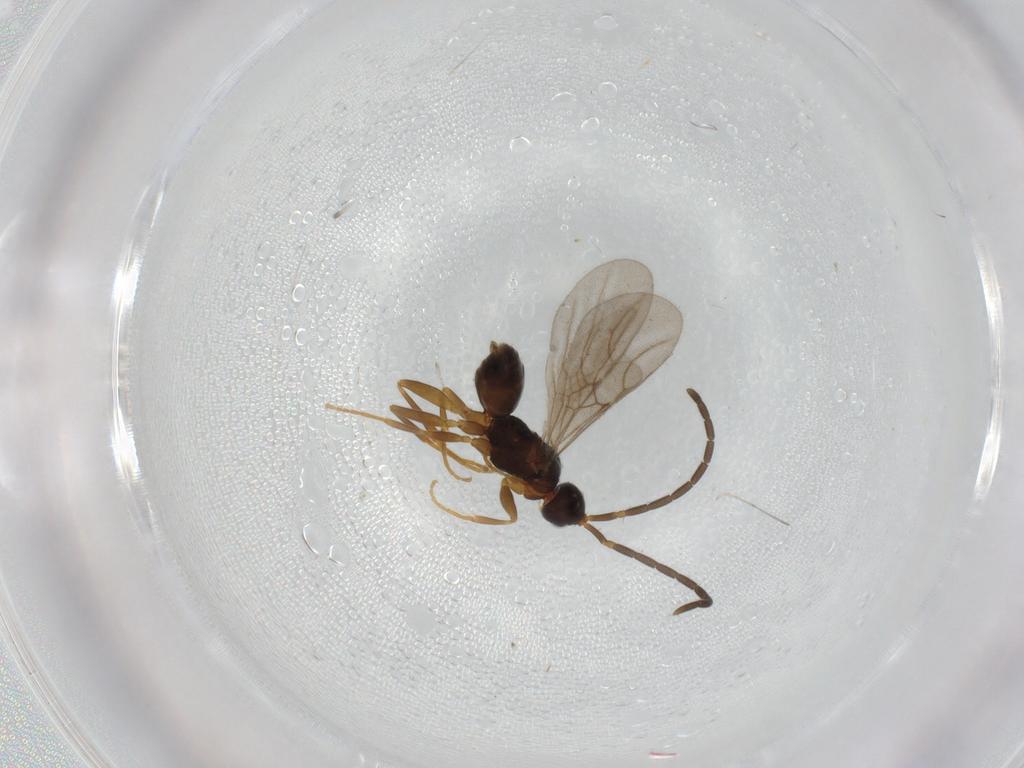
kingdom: Animalia
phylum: Arthropoda
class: Insecta
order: Hymenoptera
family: Embolemidae
